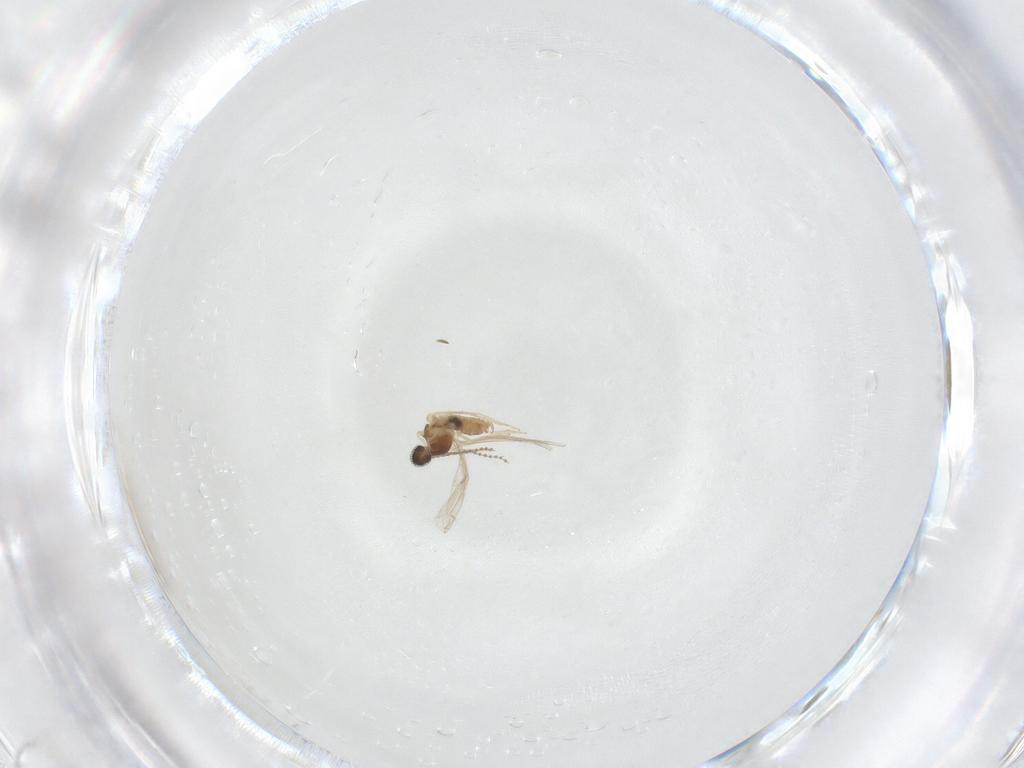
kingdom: Animalia
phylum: Arthropoda
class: Insecta
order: Diptera
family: Cecidomyiidae
